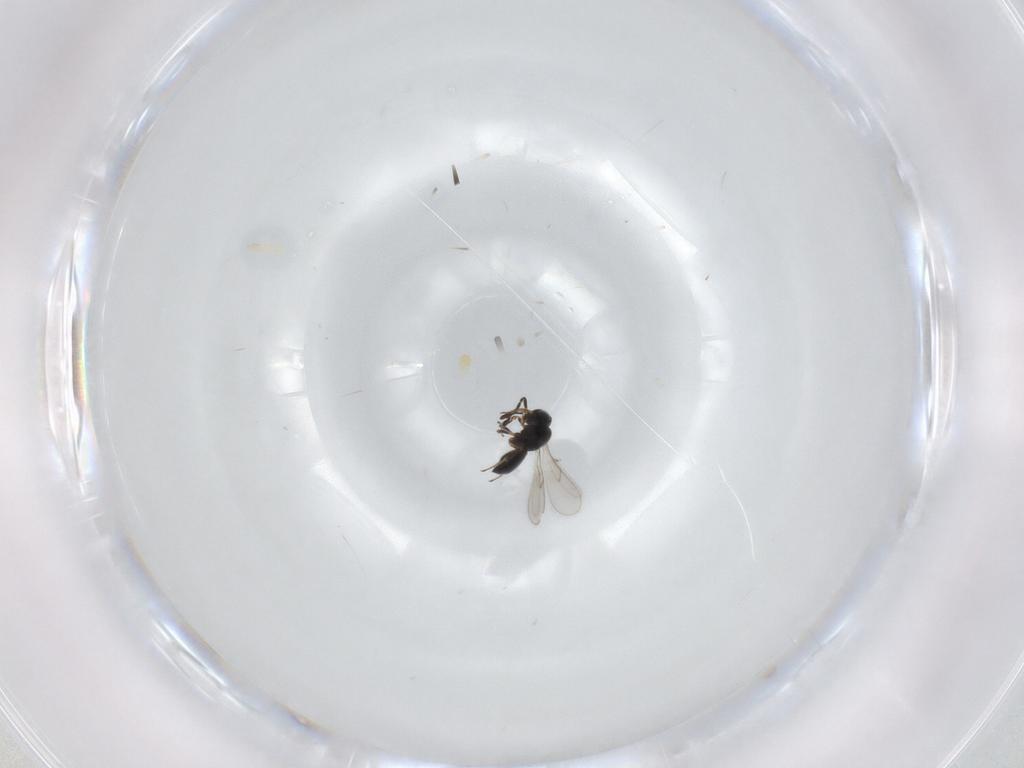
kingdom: Animalia
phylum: Arthropoda
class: Insecta
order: Hymenoptera
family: Scelionidae
